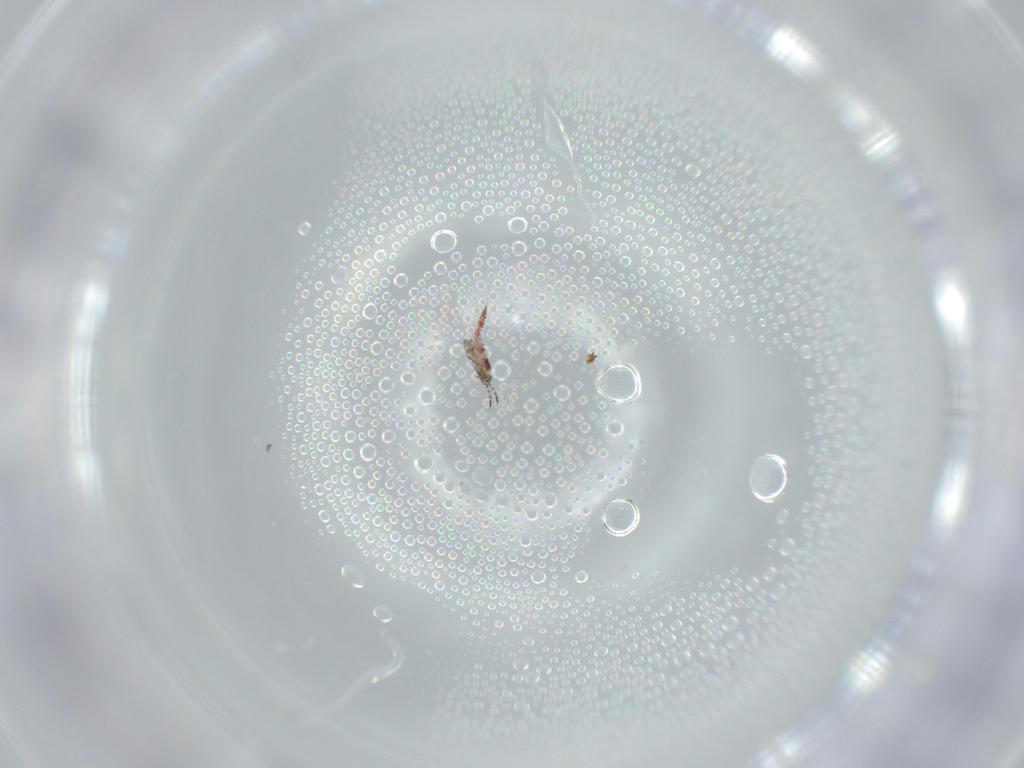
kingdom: Animalia
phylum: Arthropoda
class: Insecta
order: Thysanoptera
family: Phlaeothripidae
